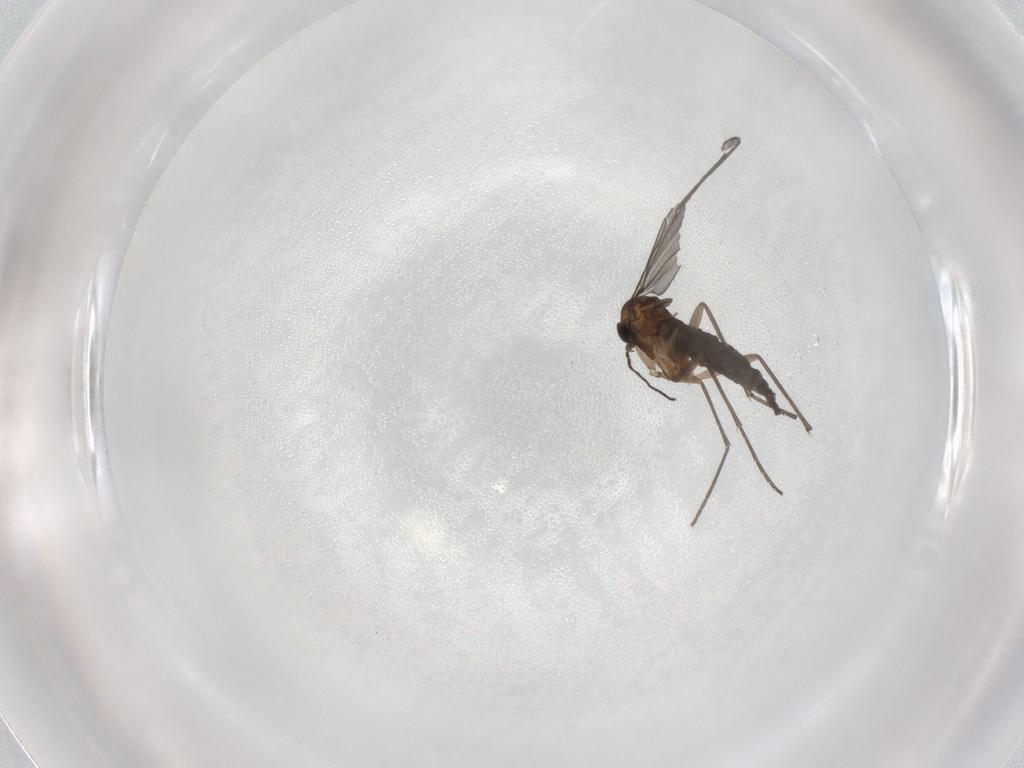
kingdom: Animalia
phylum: Arthropoda
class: Insecta
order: Diptera
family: Sciaridae
